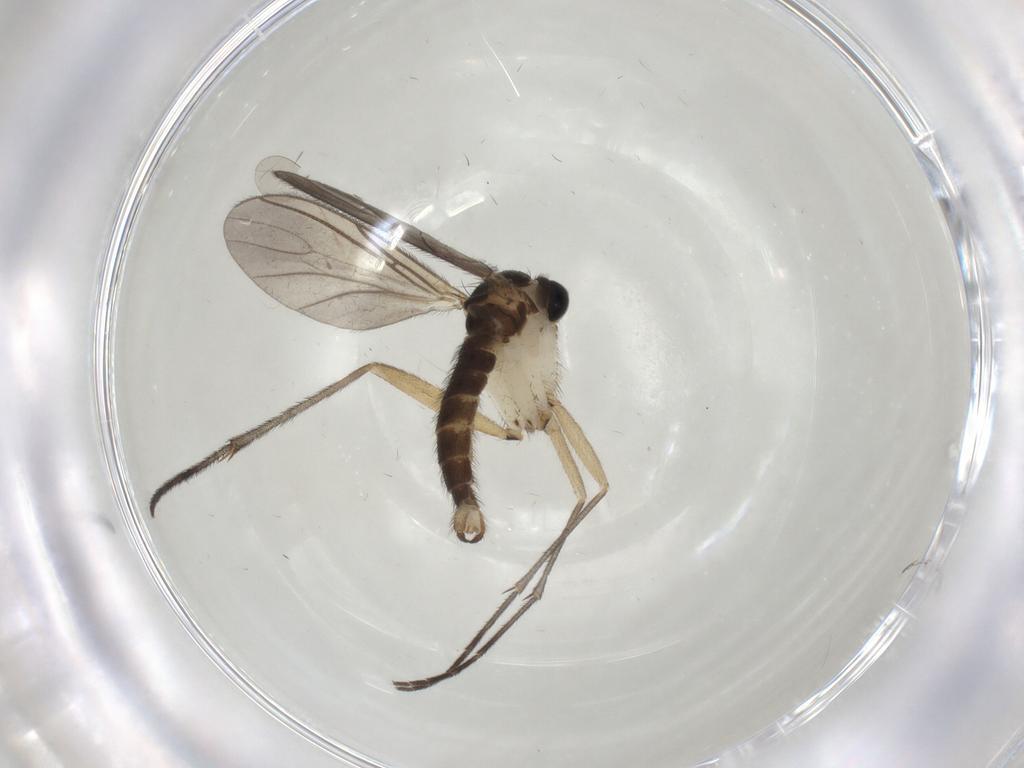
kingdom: Animalia
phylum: Arthropoda
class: Insecta
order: Diptera
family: Sciaridae
